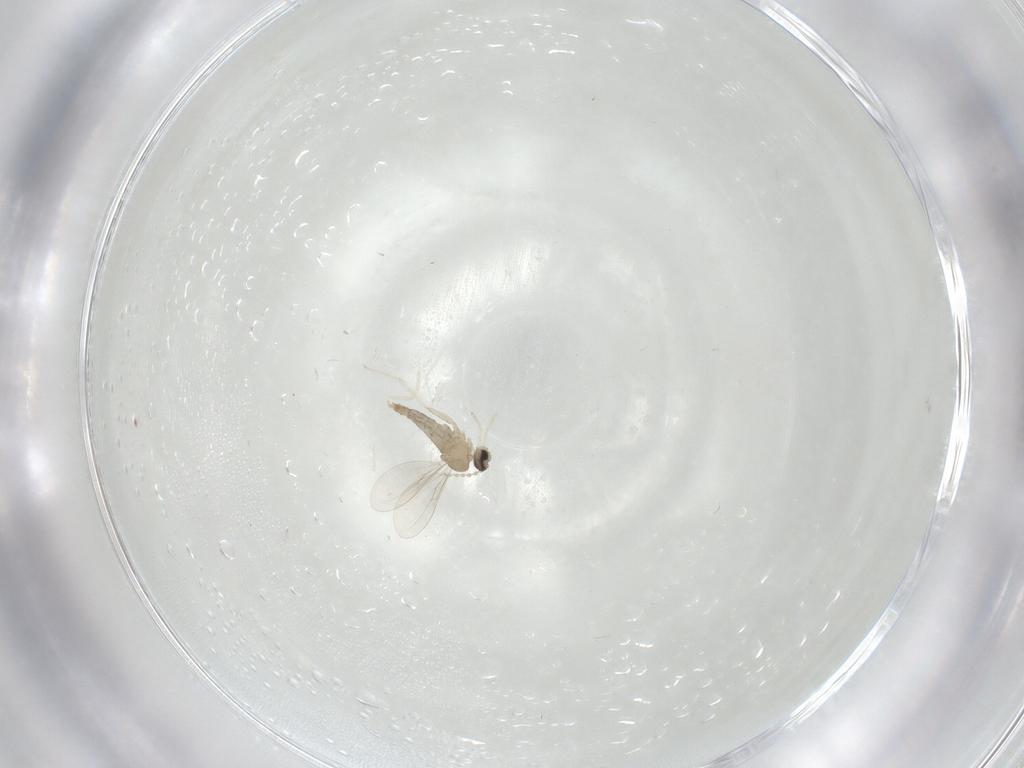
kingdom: Animalia
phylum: Arthropoda
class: Insecta
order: Diptera
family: Cecidomyiidae
